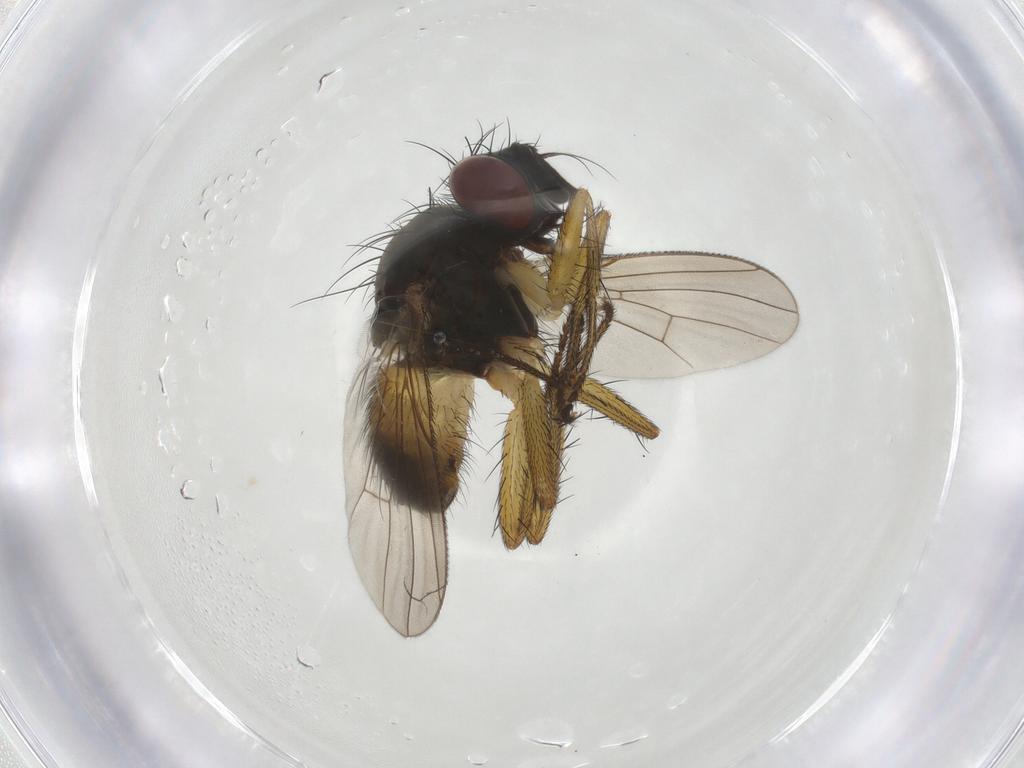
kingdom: Animalia
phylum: Arthropoda
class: Insecta
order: Diptera
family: Muscidae
